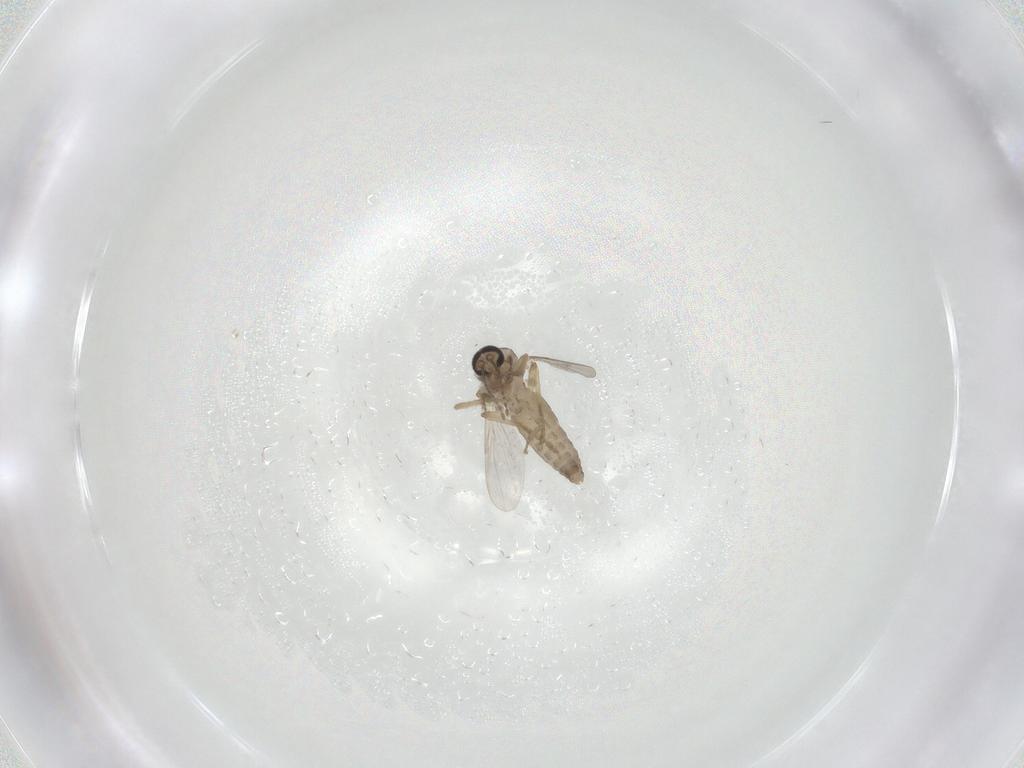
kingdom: Animalia
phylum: Arthropoda
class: Insecta
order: Diptera
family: Ceratopogonidae
